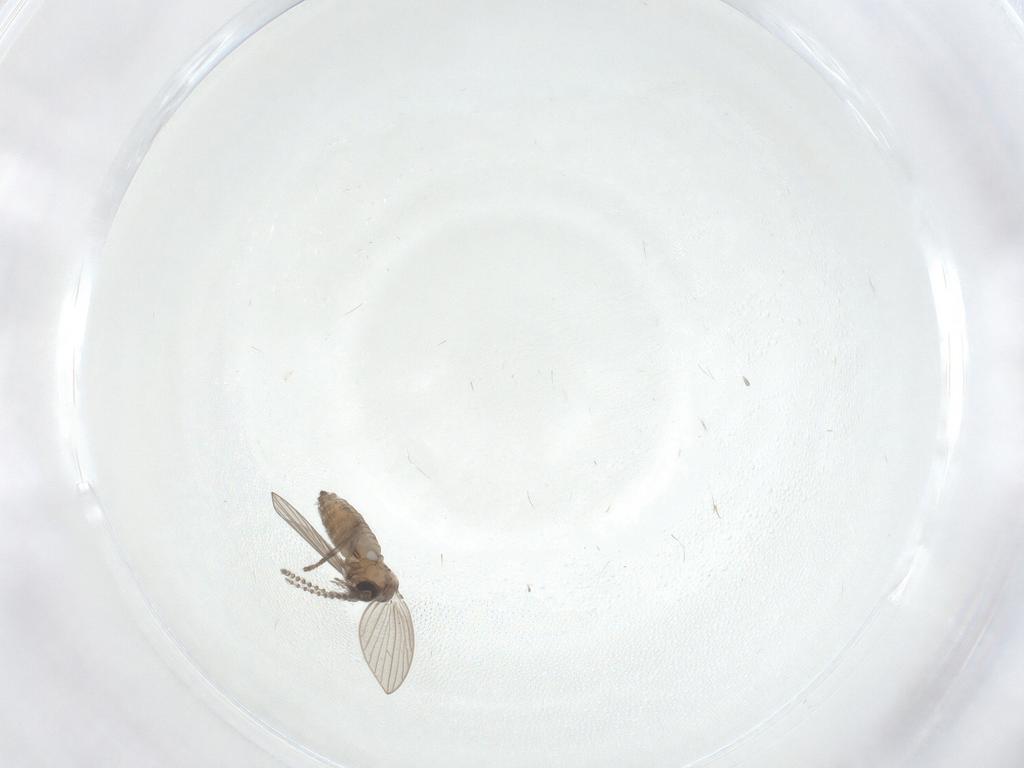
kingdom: Animalia
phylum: Arthropoda
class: Insecta
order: Diptera
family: Psychodidae
